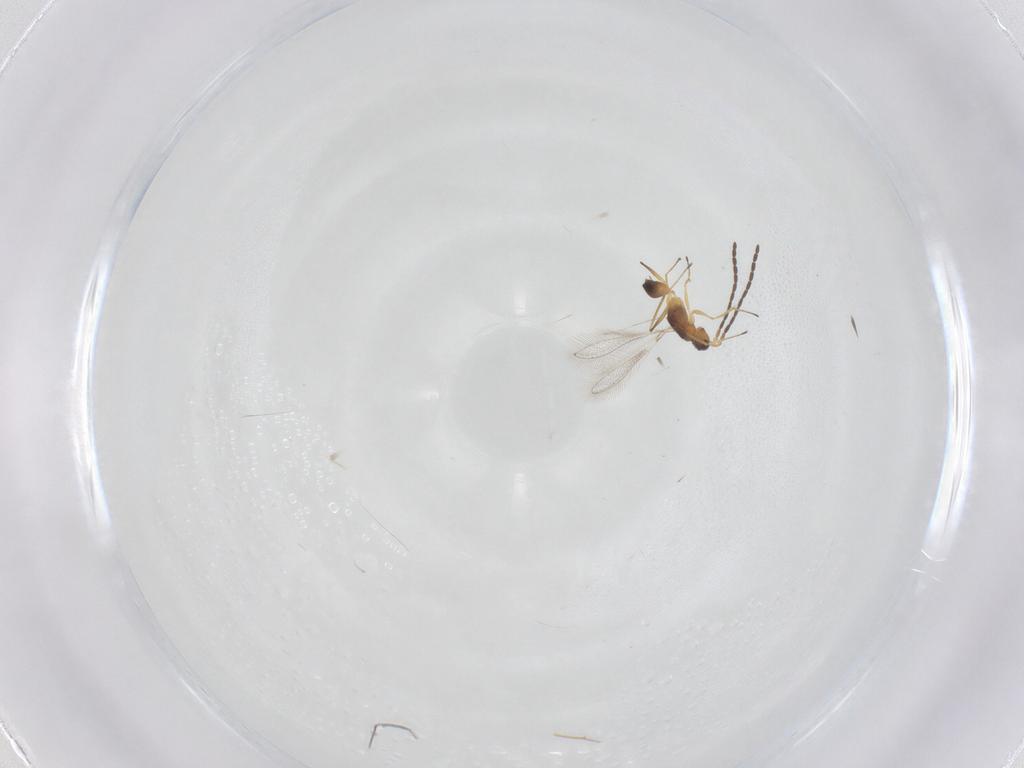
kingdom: Animalia
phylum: Arthropoda
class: Insecta
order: Hymenoptera
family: Mymaridae
